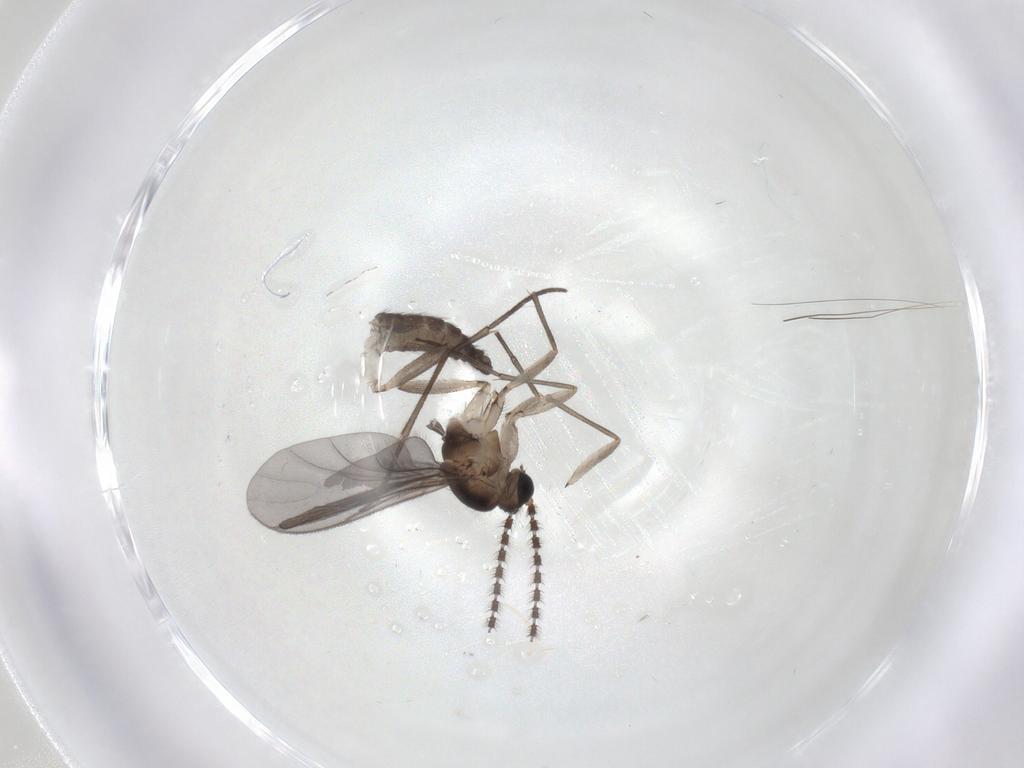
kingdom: Animalia
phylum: Arthropoda
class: Insecta
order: Diptera
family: Sciaridae
